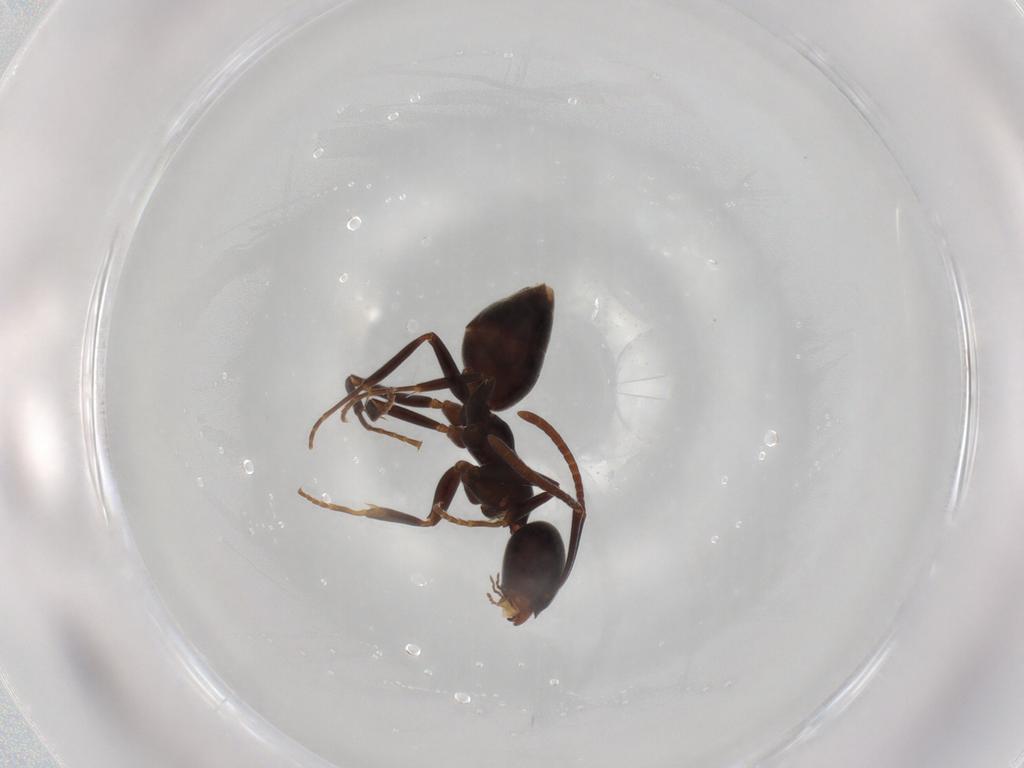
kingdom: Animalia
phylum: Arthropoda
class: Insecta
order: Hymenoptera
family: Formicidae
